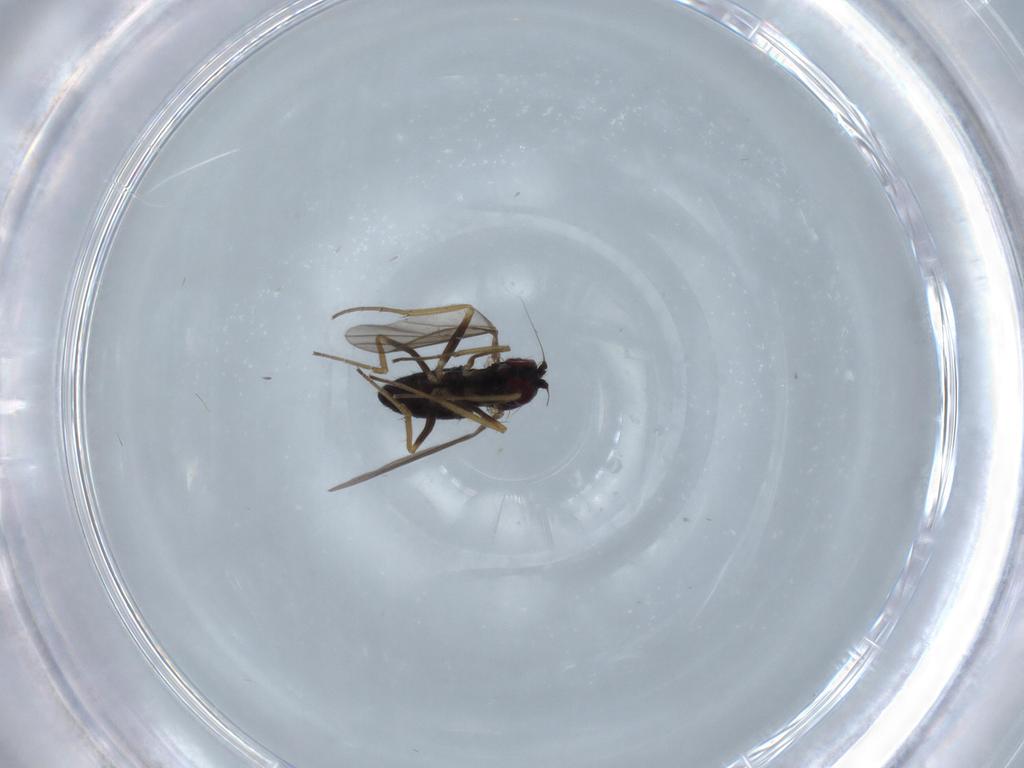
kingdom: Animalia
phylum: Arthropoda
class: Insecta
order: Diptera
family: Dolichopodidae
